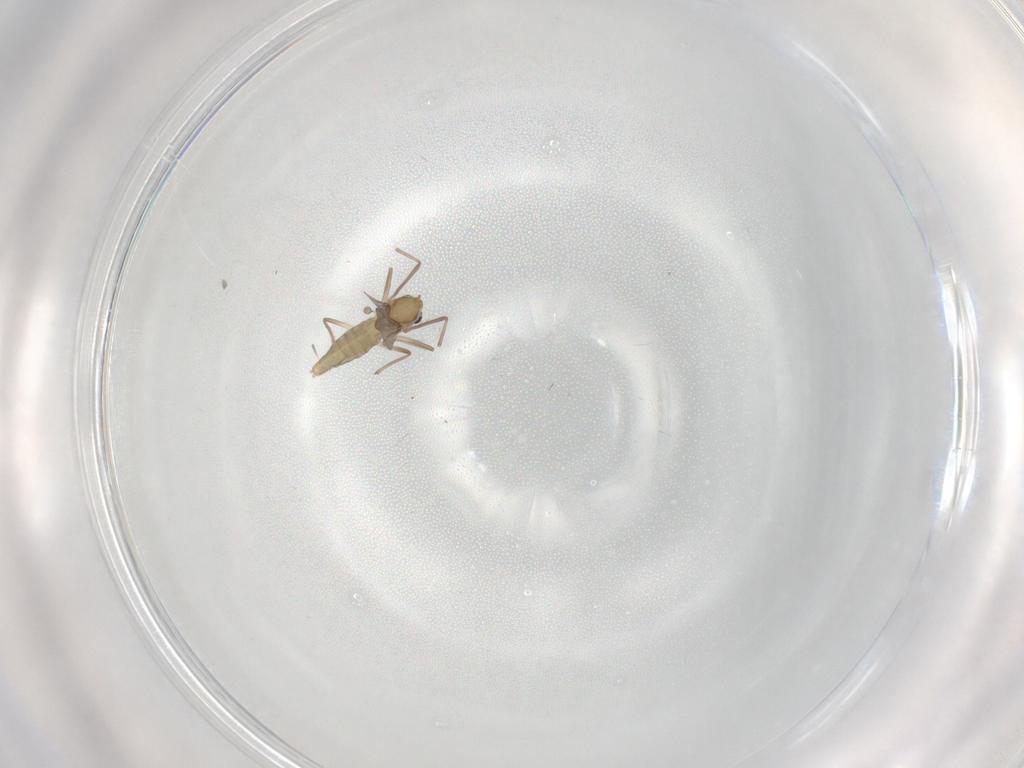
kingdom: Animalia
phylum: Arthropoda
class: Insecta
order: Diptera
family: Chironomidae
